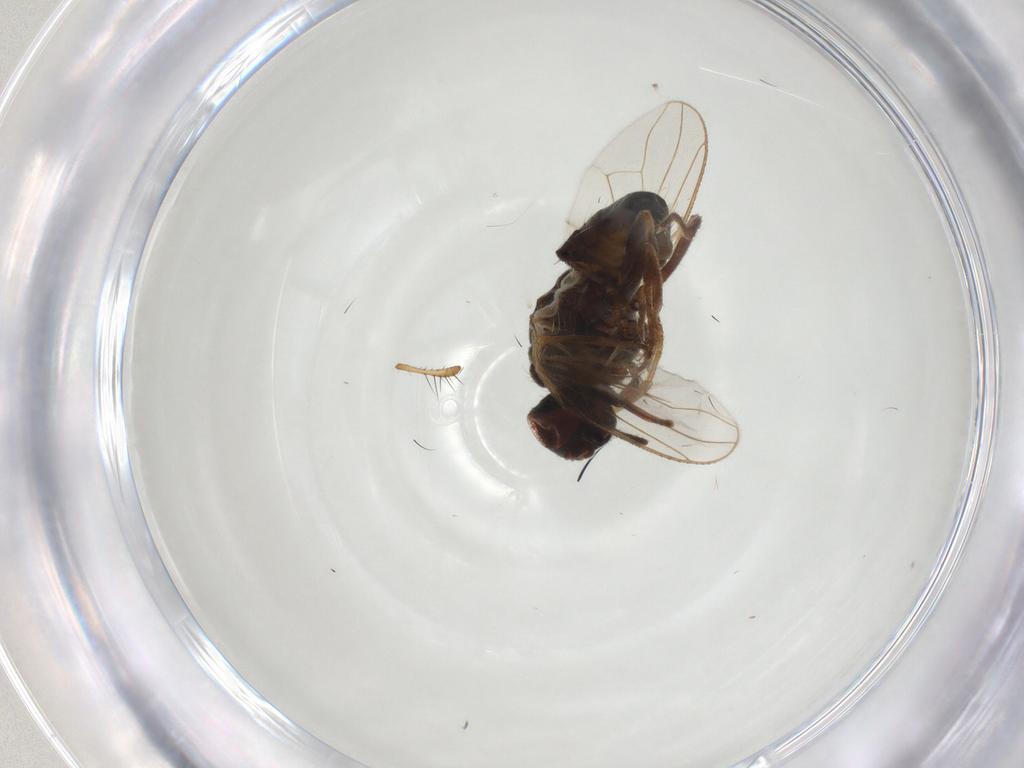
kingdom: Animalia
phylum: Arthropoda
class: Insecta
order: Diptera
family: Muscidae
